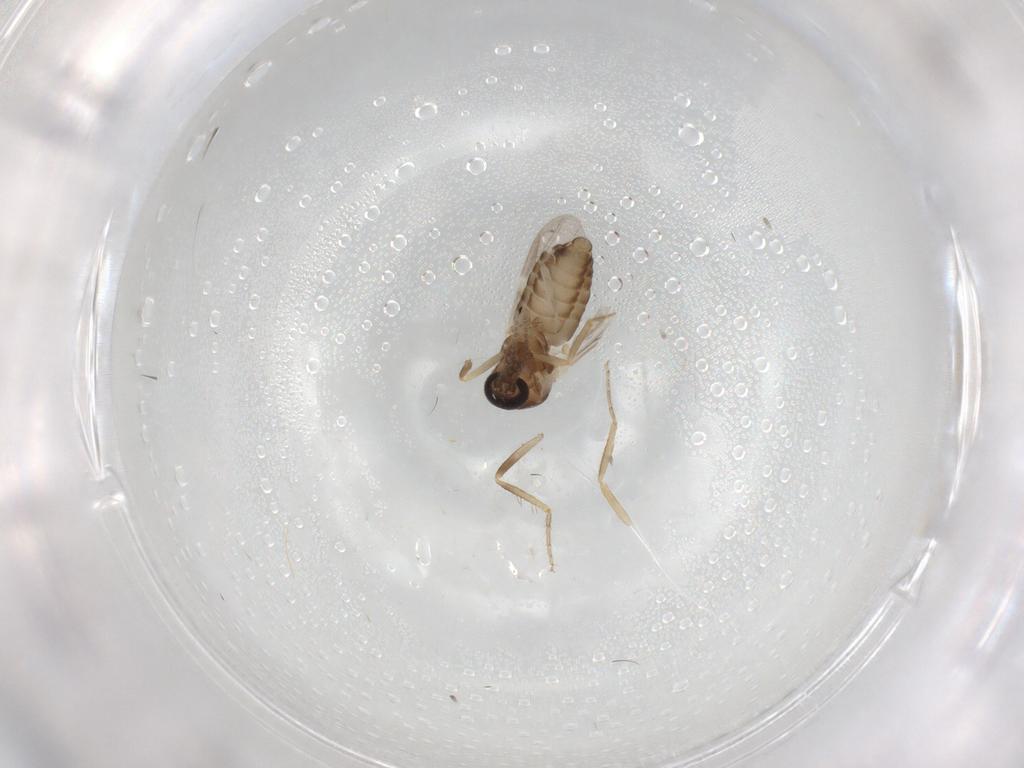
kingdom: Animalia
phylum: Arthropoda
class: Insecta
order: Diptera
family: Ceratopogonidae
